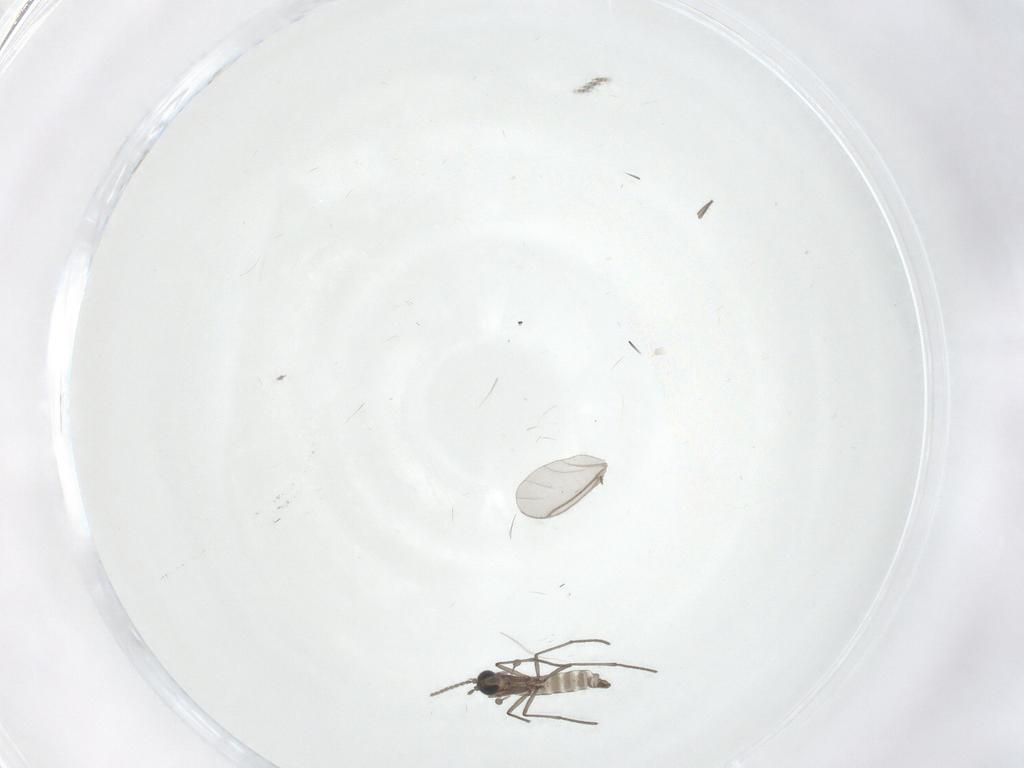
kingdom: Animalia
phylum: Arthropoda
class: Insecta
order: Diptera
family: Sciaridae
